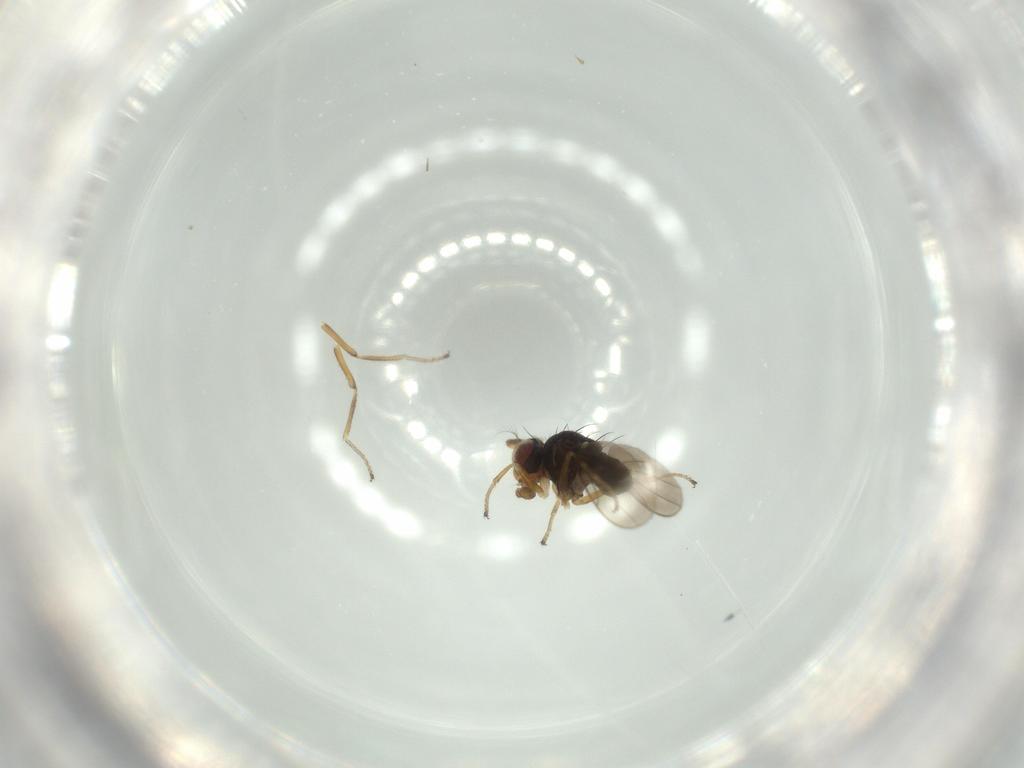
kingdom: Animalia
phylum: Arthropoda
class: Insecta
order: Diptera
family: Ephydridae
